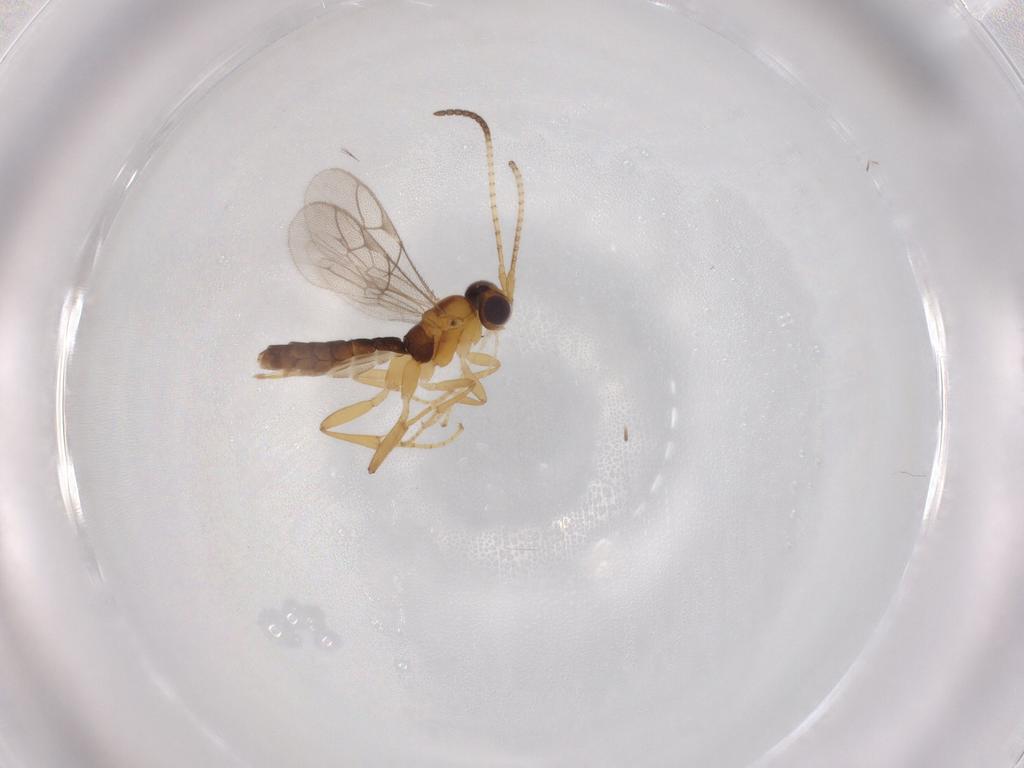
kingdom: Animalia
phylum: Arthropoda
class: Insecta
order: Hymenoptera
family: Ichneumonidae
